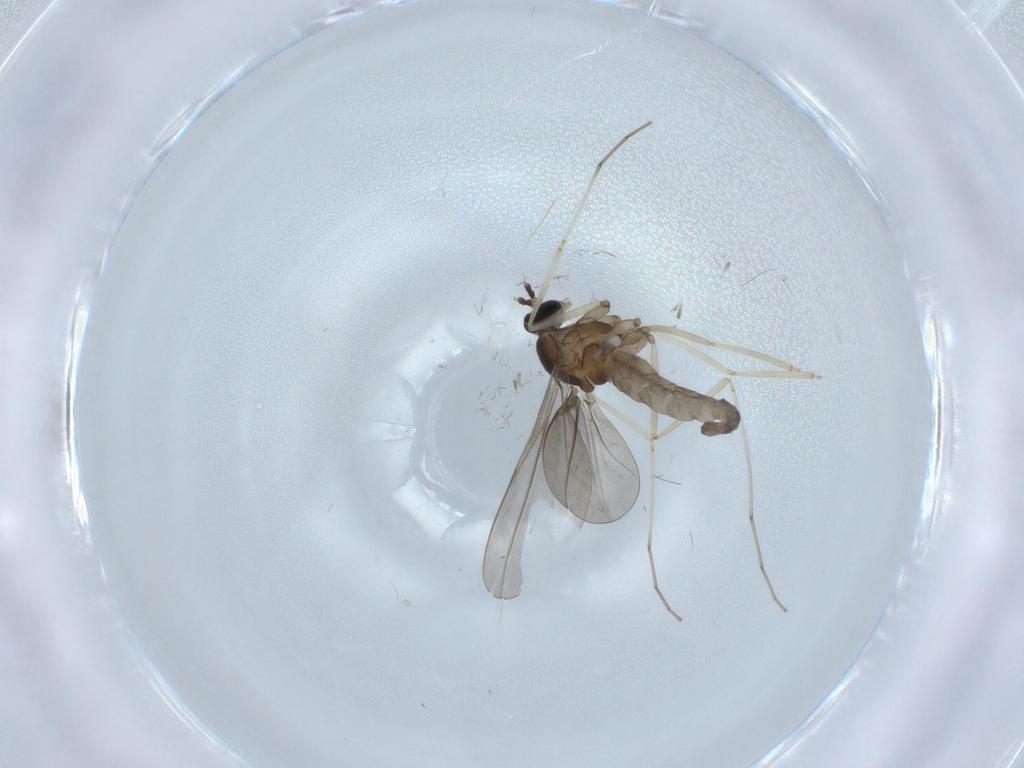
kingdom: Animalia
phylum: Arthropoda
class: Insecta
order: Diptera
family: Cecidomyiidae
